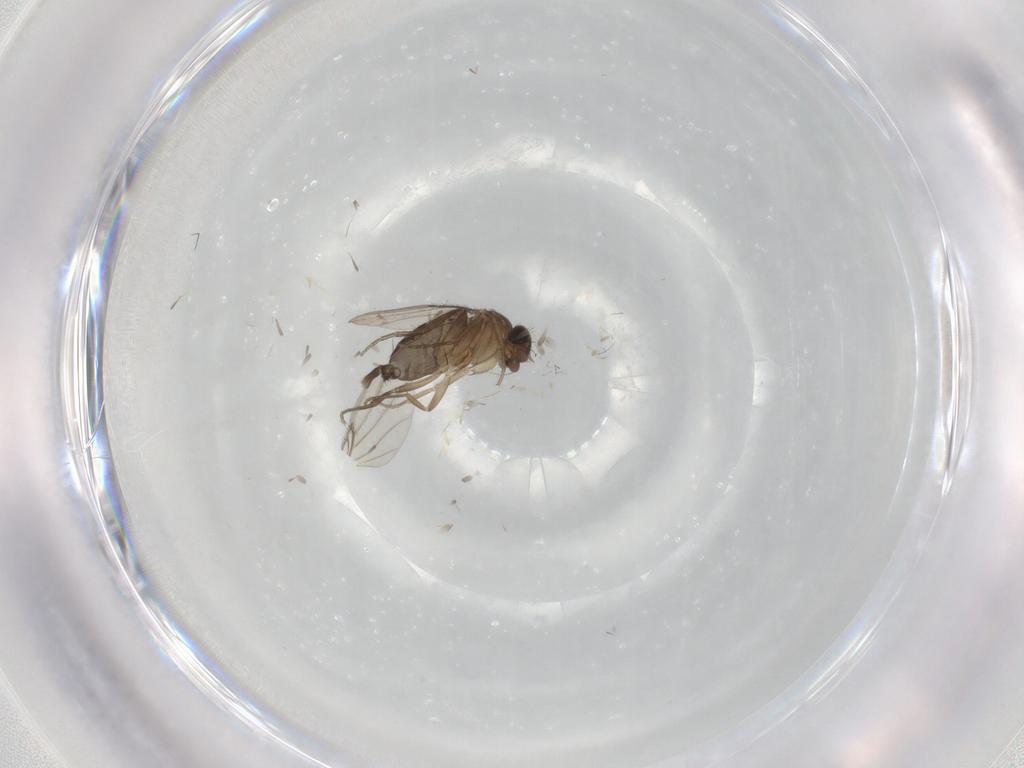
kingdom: Animalia
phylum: Arthropoda
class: Insecta
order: Diptera
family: Phoridae
